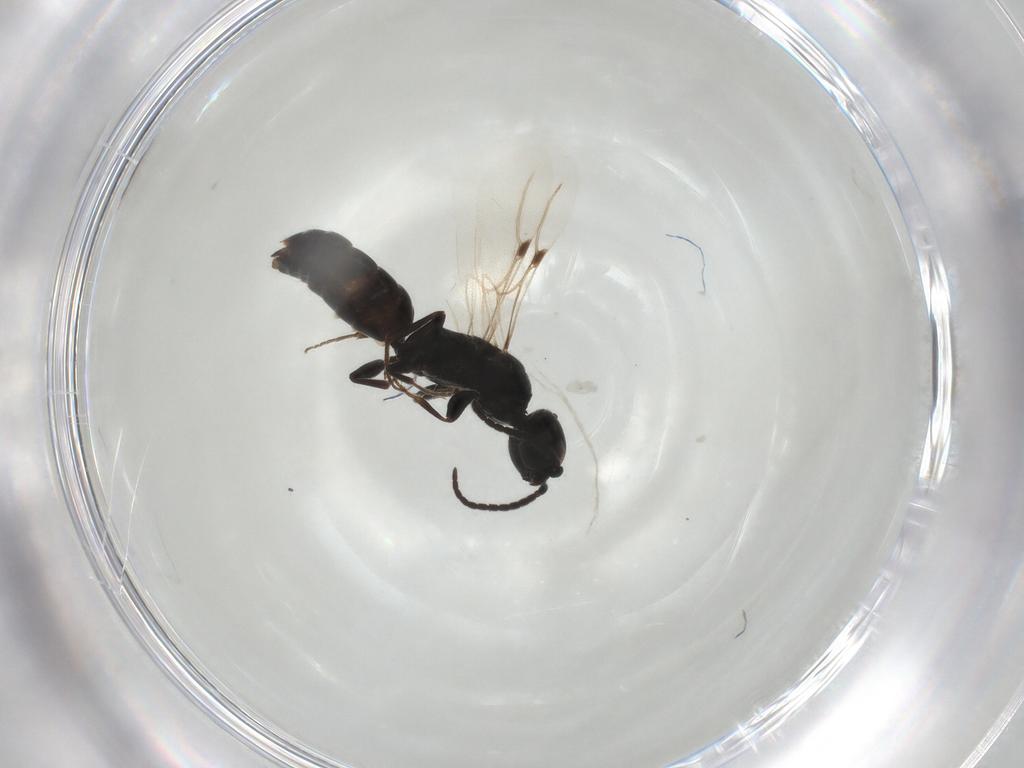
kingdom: Animalia
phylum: Arthropoda
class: Insecta
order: Hymenoptera
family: Bethylidae
